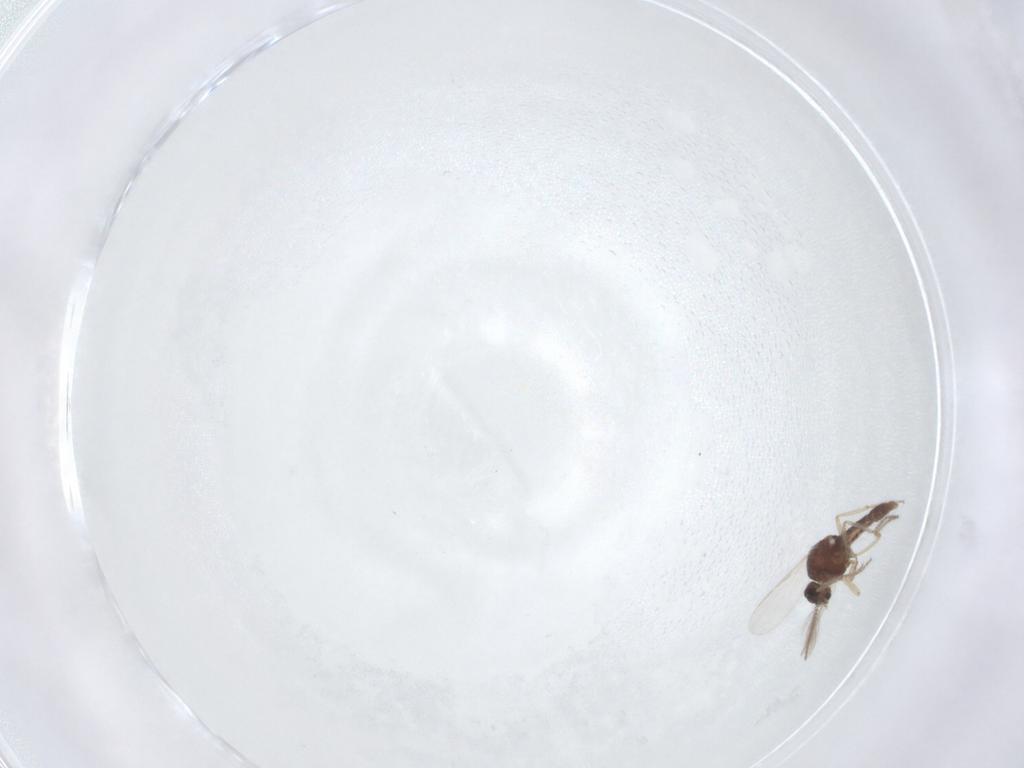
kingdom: Animalia
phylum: Arthropoda
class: Insecta
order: Diptera
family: Ceratopogonidae
